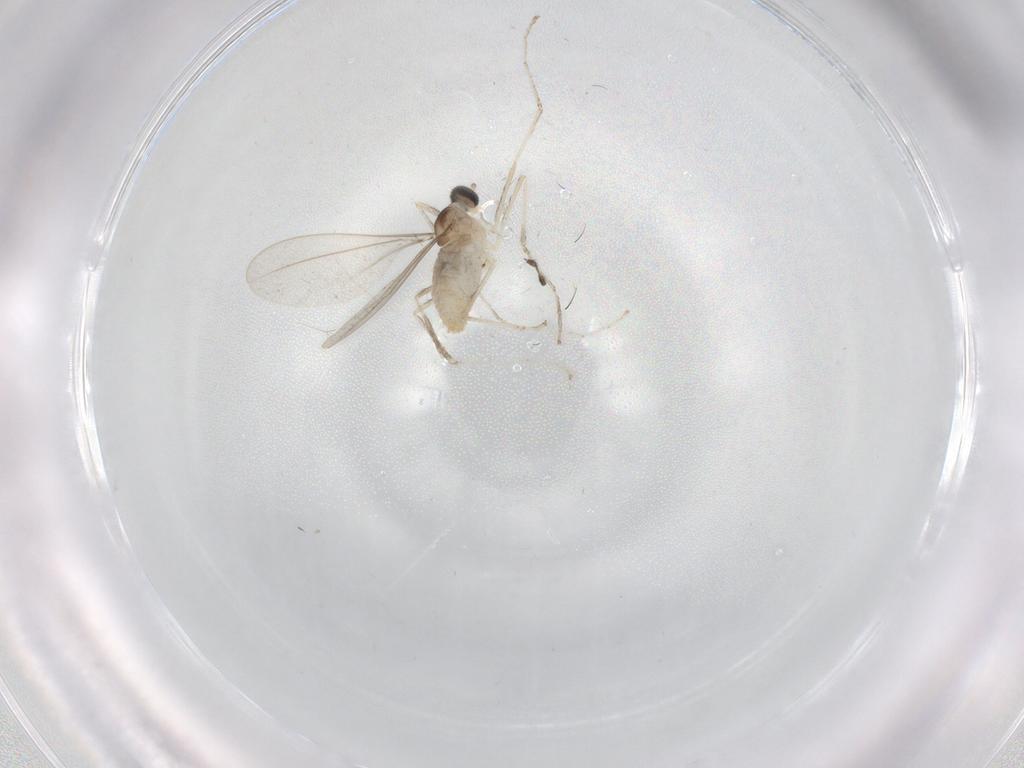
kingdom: Animalia
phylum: Arthropoda
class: Insecta
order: Diptera
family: Cecidomyiidae
